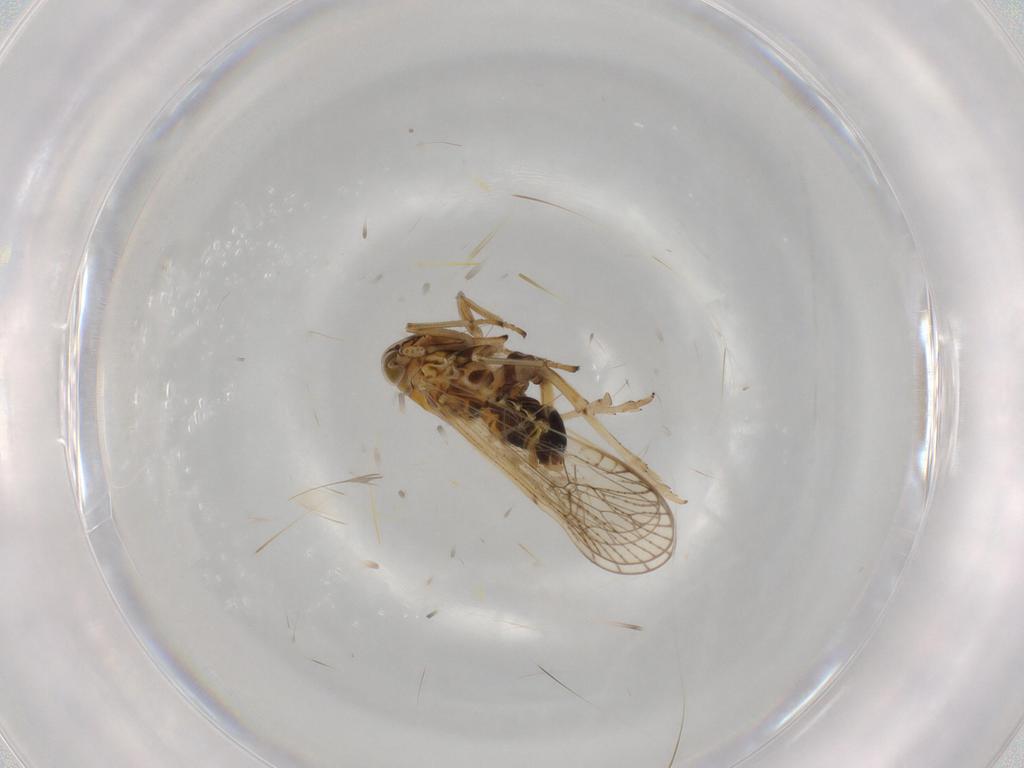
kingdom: Animalia
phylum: Arthropoda
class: Insecta
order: Hemiptera
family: Delphacidae
